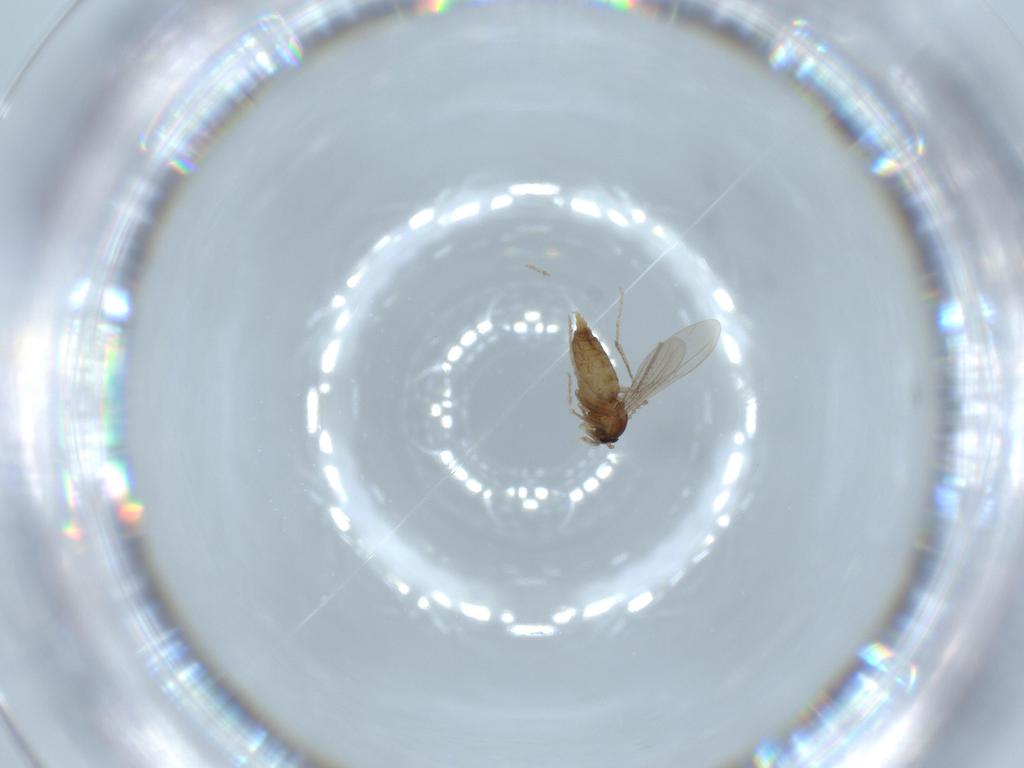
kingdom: Animalia
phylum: Arthropoda
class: Insecta
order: Diptera
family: Cecidomyiidae
